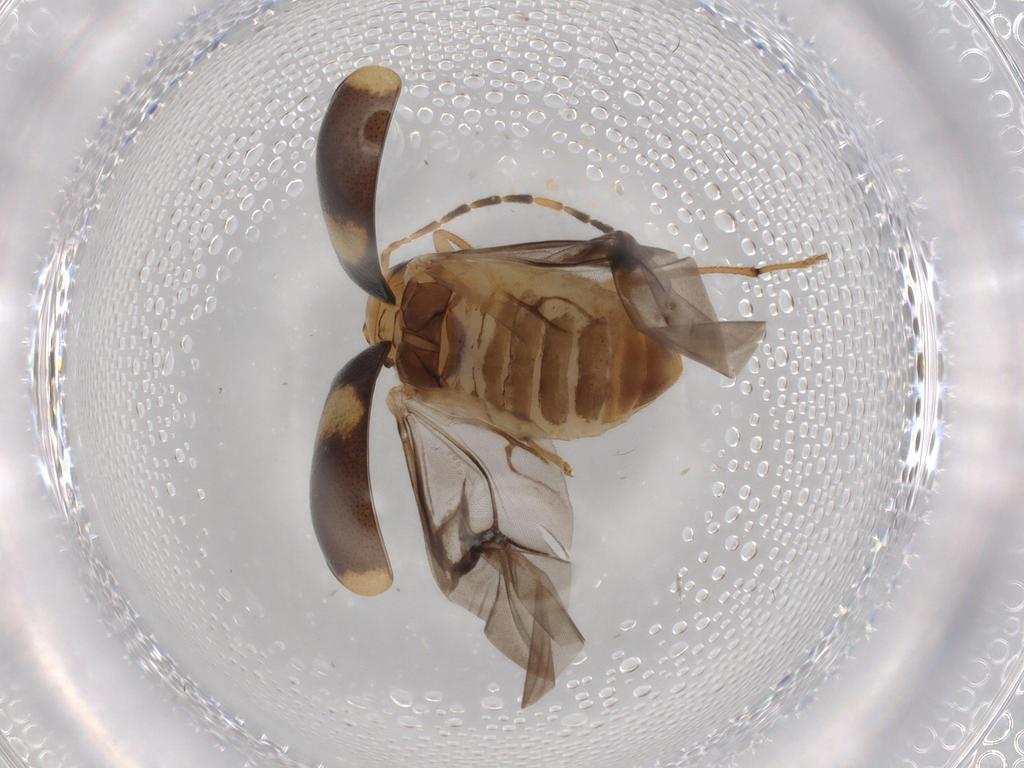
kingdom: Animalia
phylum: Arthropoda
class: Insecta
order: Coleoptera
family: Chrysomelidae
